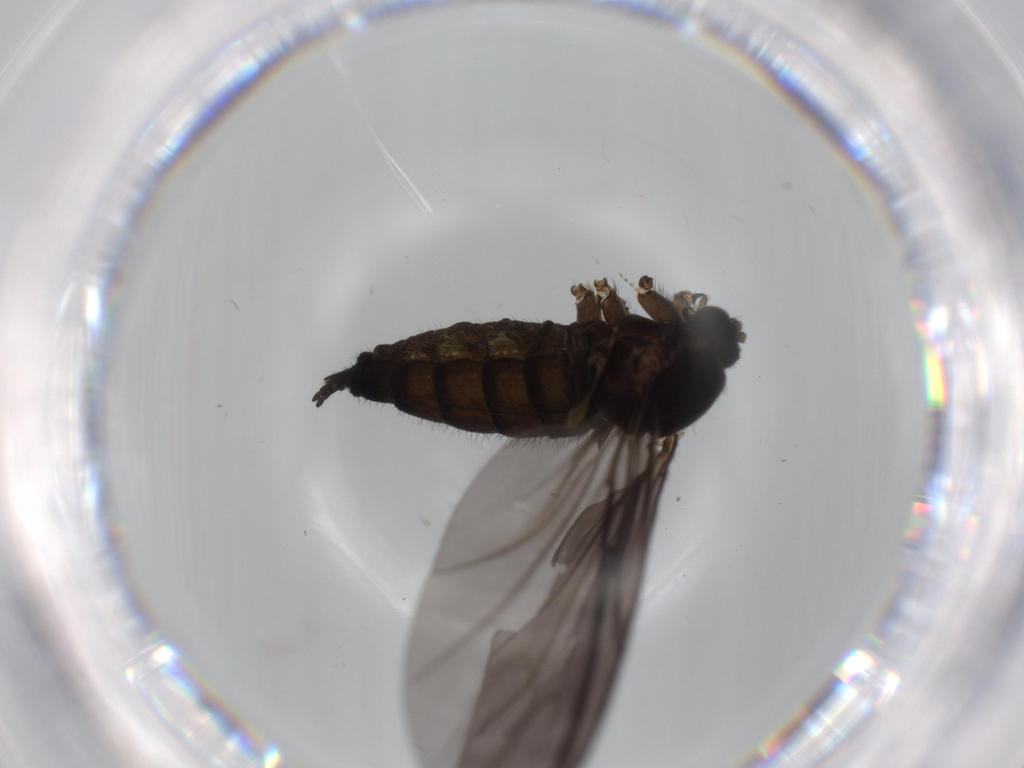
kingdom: Animalia
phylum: Arthropoda
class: Insecta
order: Diptera
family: Sciaridae
